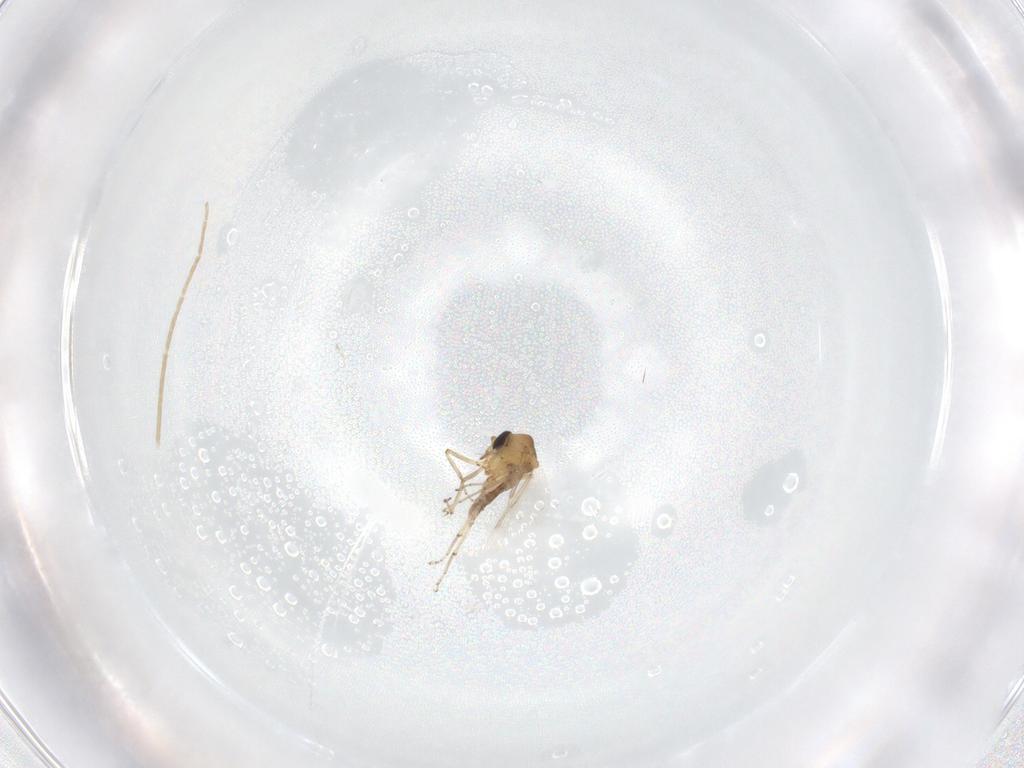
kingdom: Animalia
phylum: Arthropoda
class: Insecta
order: Diptera
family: Ceratopogonidae
